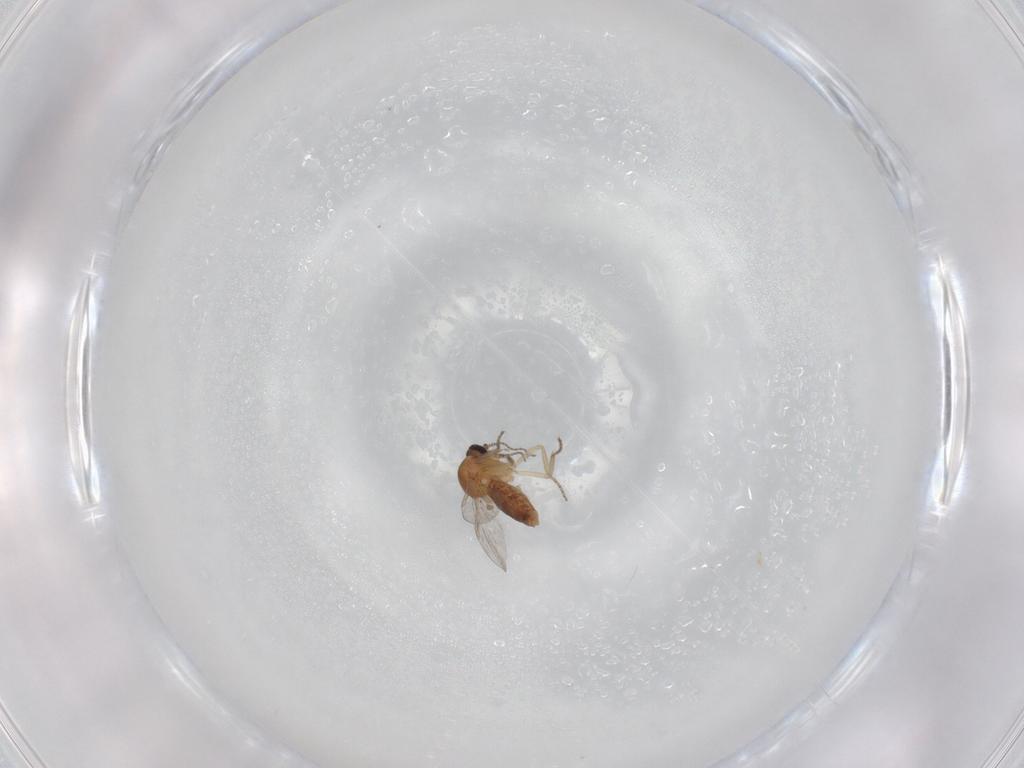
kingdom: Animalia
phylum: Arthropoda
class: Insecta
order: Diptera
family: Ceratopogonidae
